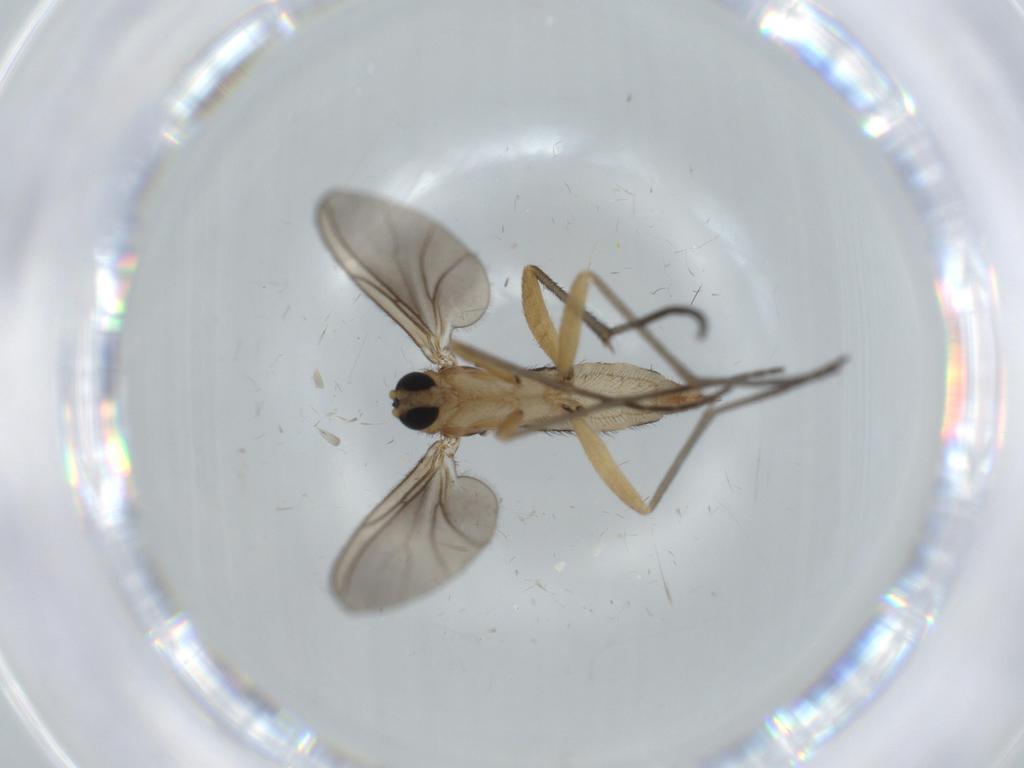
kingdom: Animalia
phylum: Arthropoda
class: Insecta
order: Diptera
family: Sciaridae
